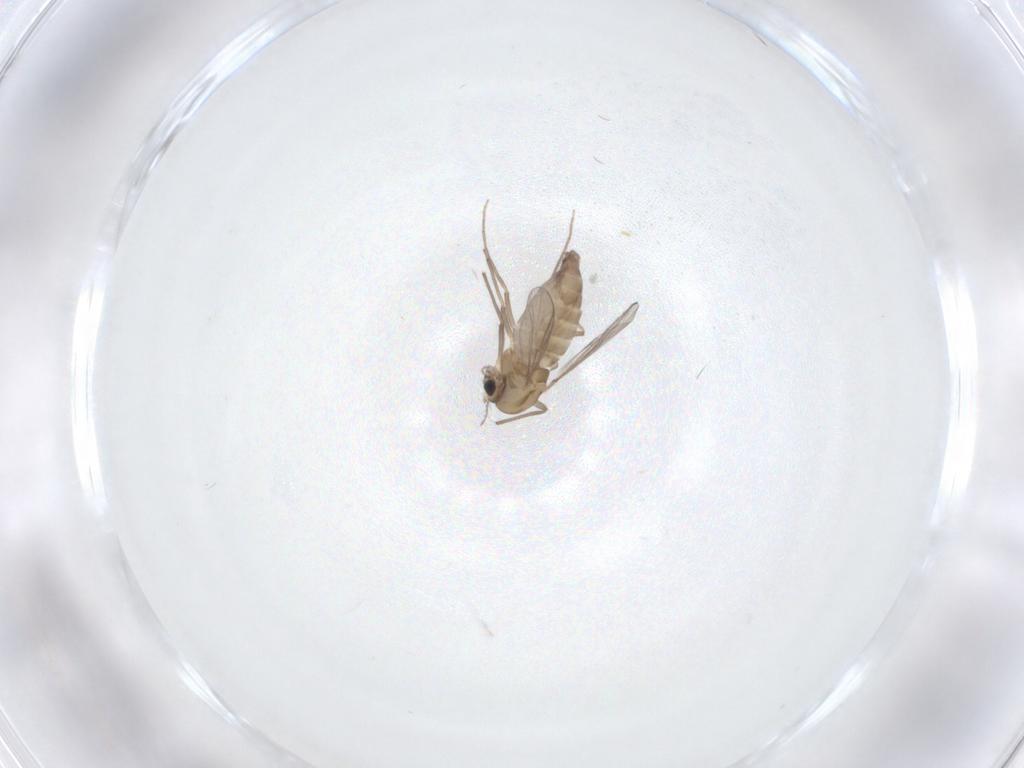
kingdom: Animalia
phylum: Arthropoda
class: Insecta
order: Diptera
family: Chironomidae
